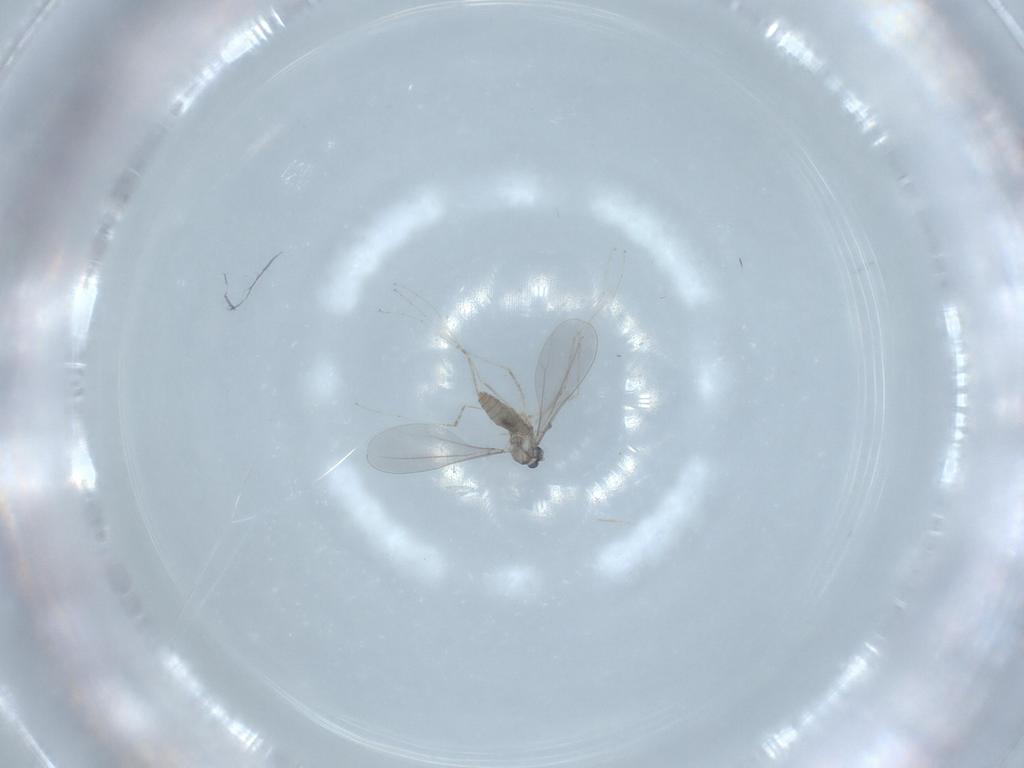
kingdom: Animalia
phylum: Arthropoda
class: Insecta
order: Diptera
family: Cecidomyiidae
